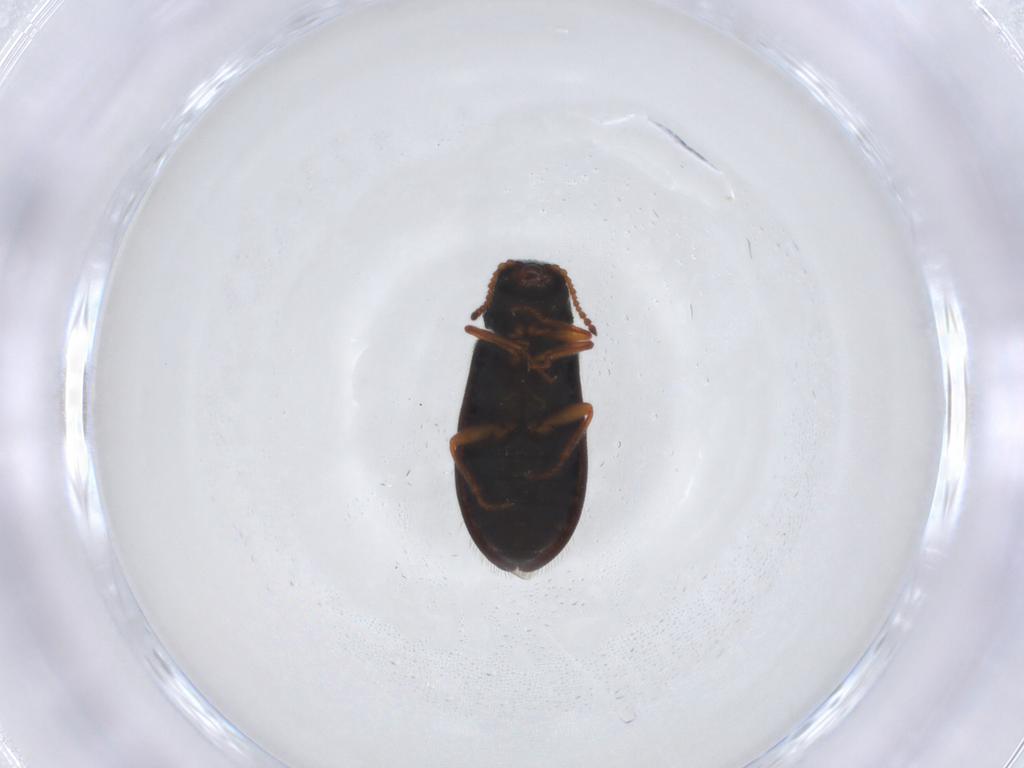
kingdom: Animalia
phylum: Arthropoda
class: Insecta
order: Coleoptera
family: Melyridae
